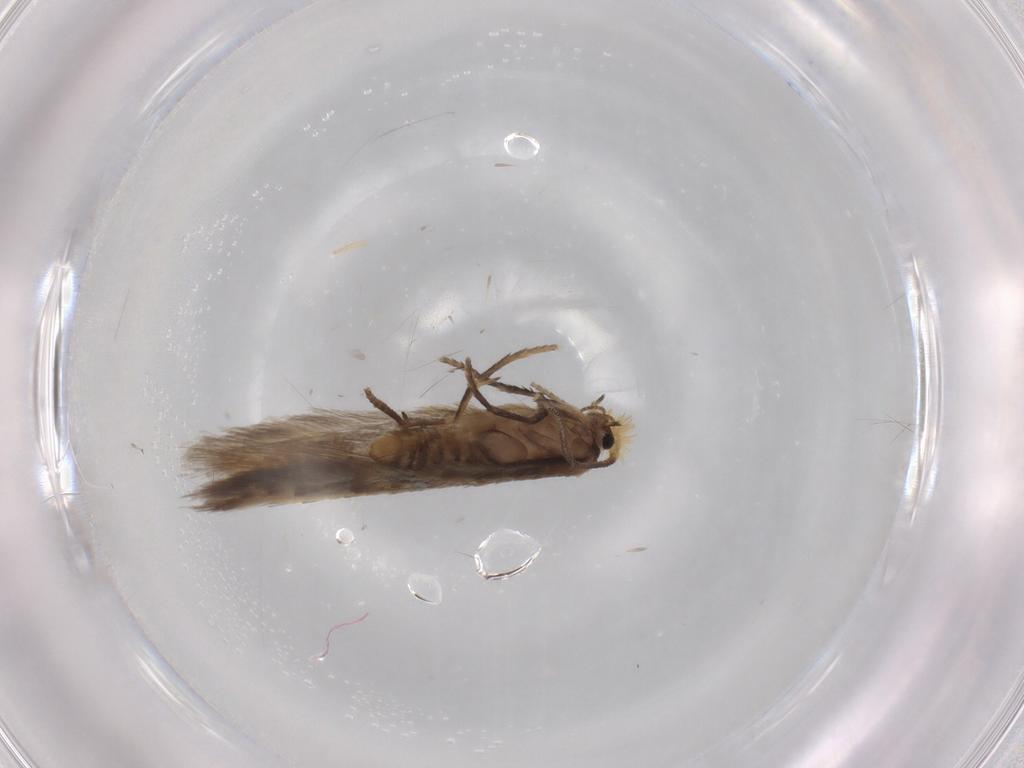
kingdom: Animalia
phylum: Arthropoda
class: Insecta
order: Lepidoptera
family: Nepticulidae
